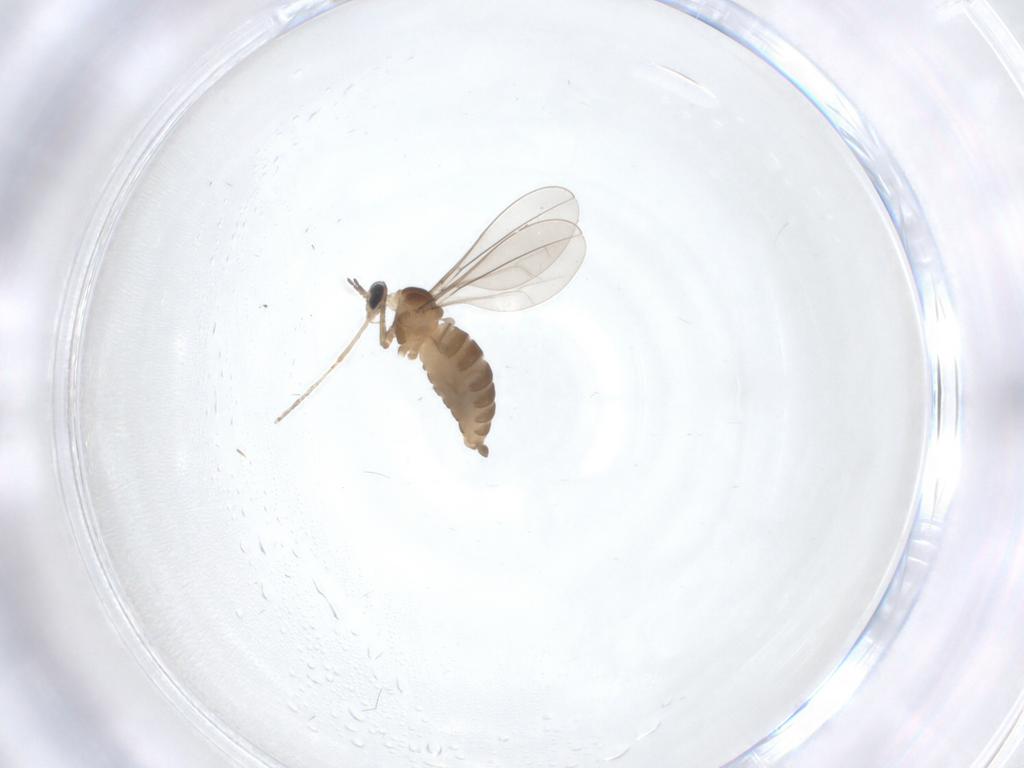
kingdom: Animalia
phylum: Arthropoda
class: Insecta
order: Diptera
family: Cecidomyiidae
